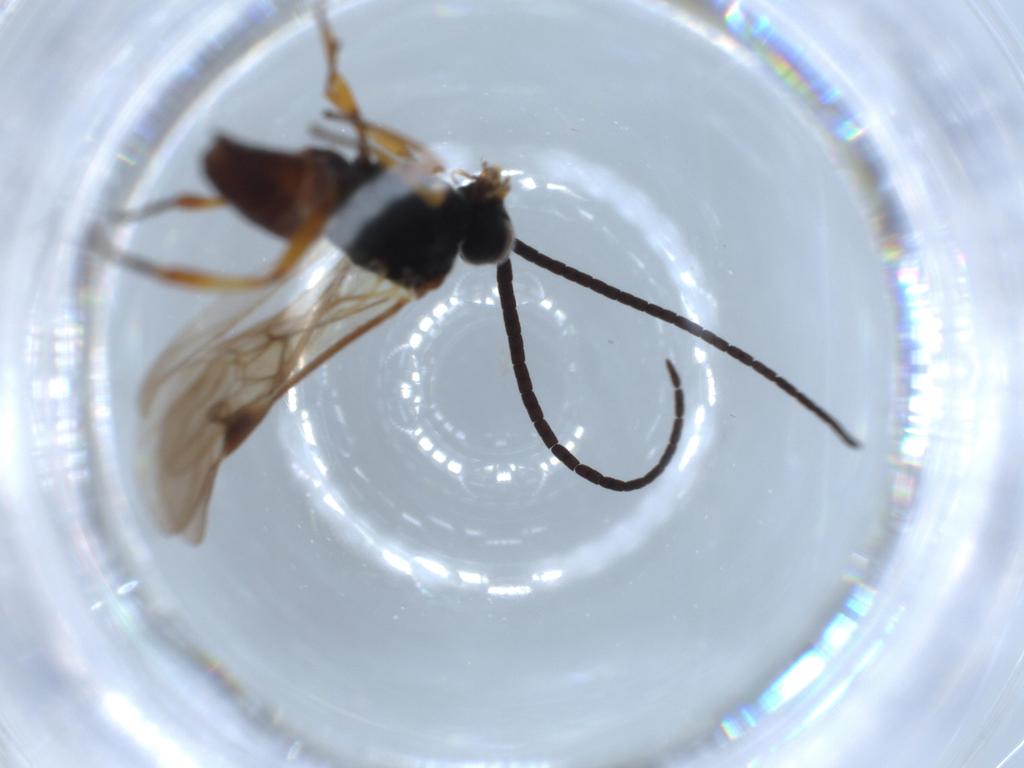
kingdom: Animalia
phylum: Arthropoda
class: Insecta
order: Hymenoptera
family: Braconidae
